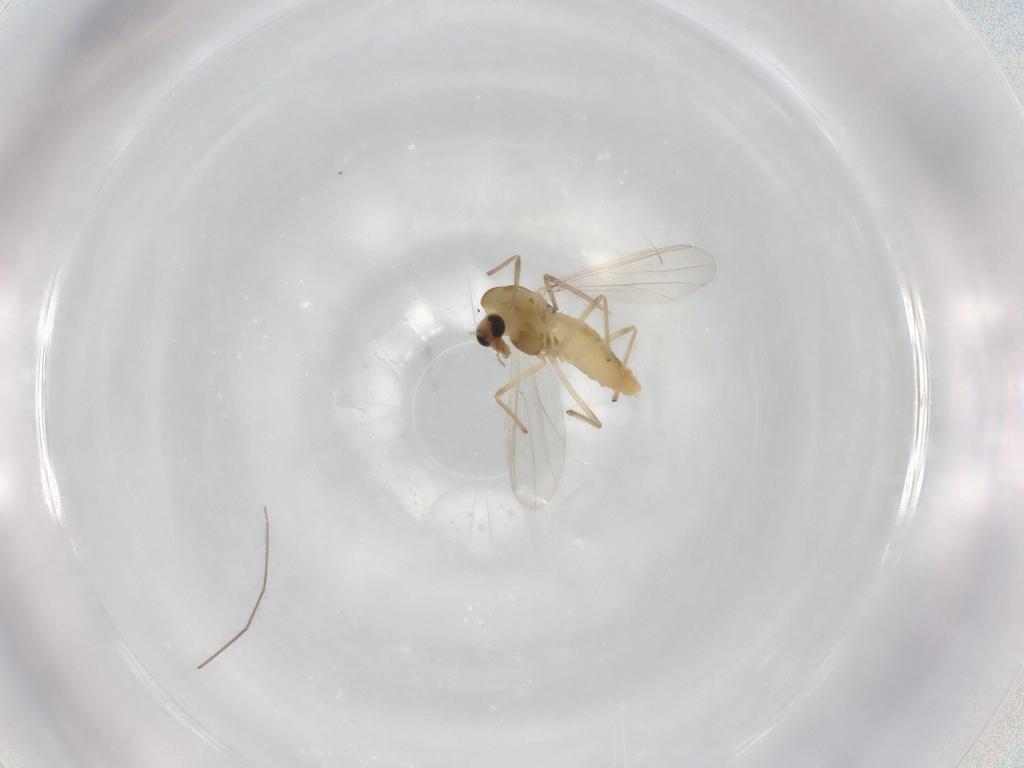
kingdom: Animalia
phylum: Arthropoda
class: Insecta
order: Diptera
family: Chironomidae
